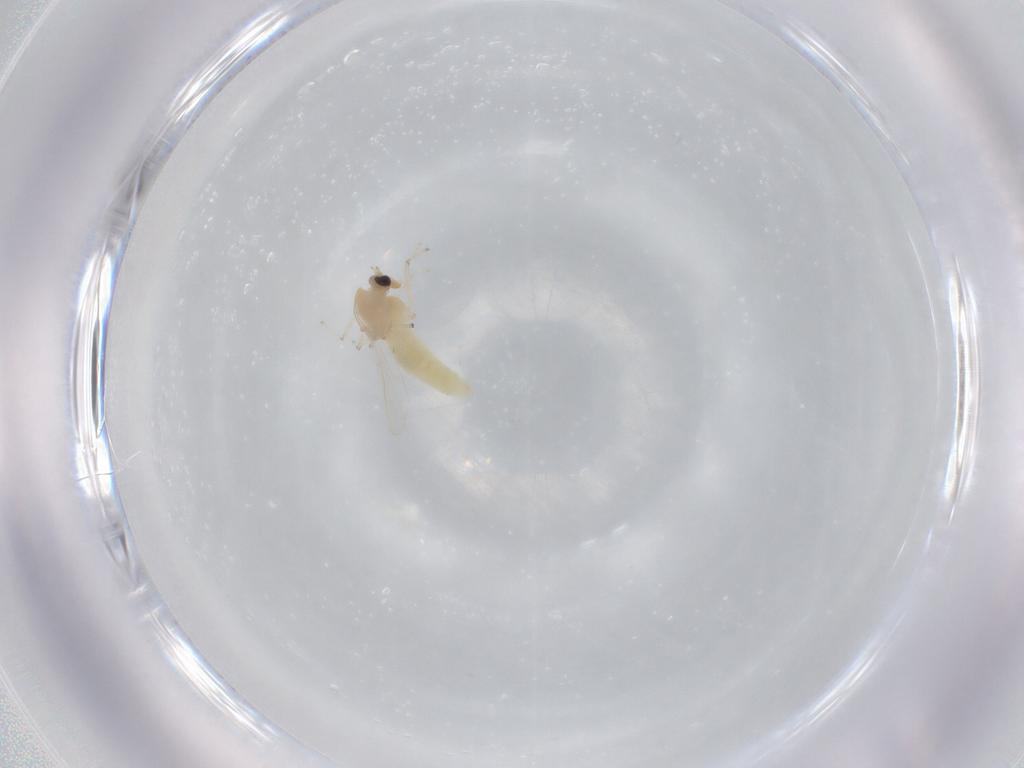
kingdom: Animalia
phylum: Arthropoda
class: Insecta
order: Diptera
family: Chironomidae
